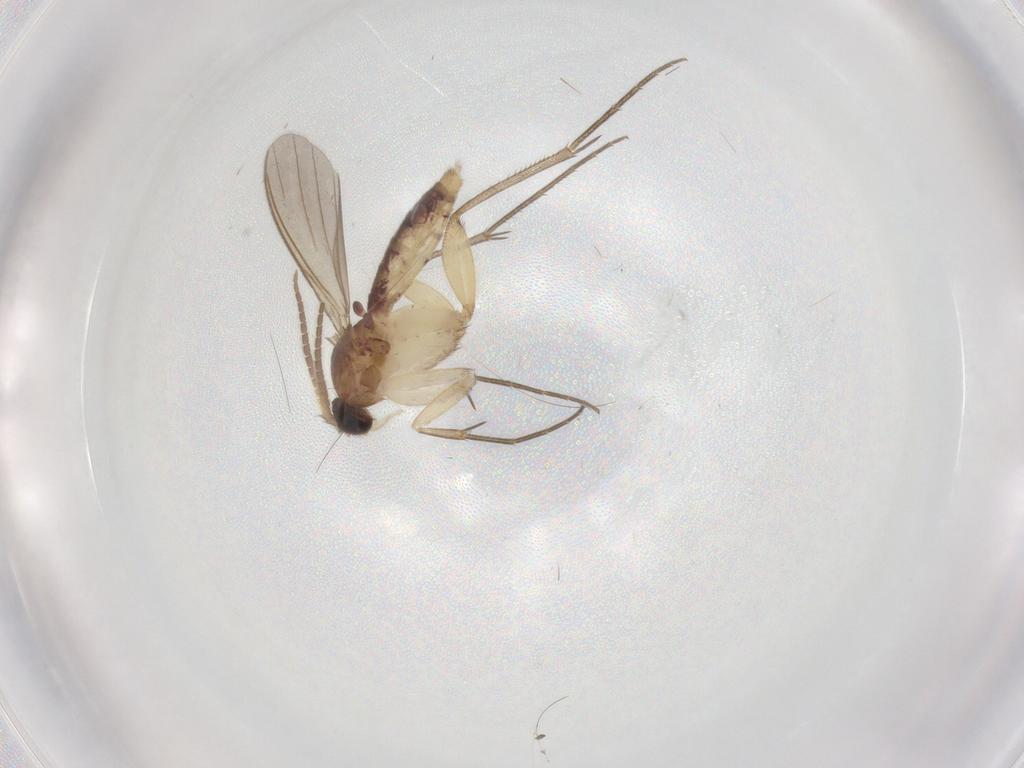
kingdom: Animalia
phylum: Arthropoda
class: Insecta
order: Diptera
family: Mycetophilidae
